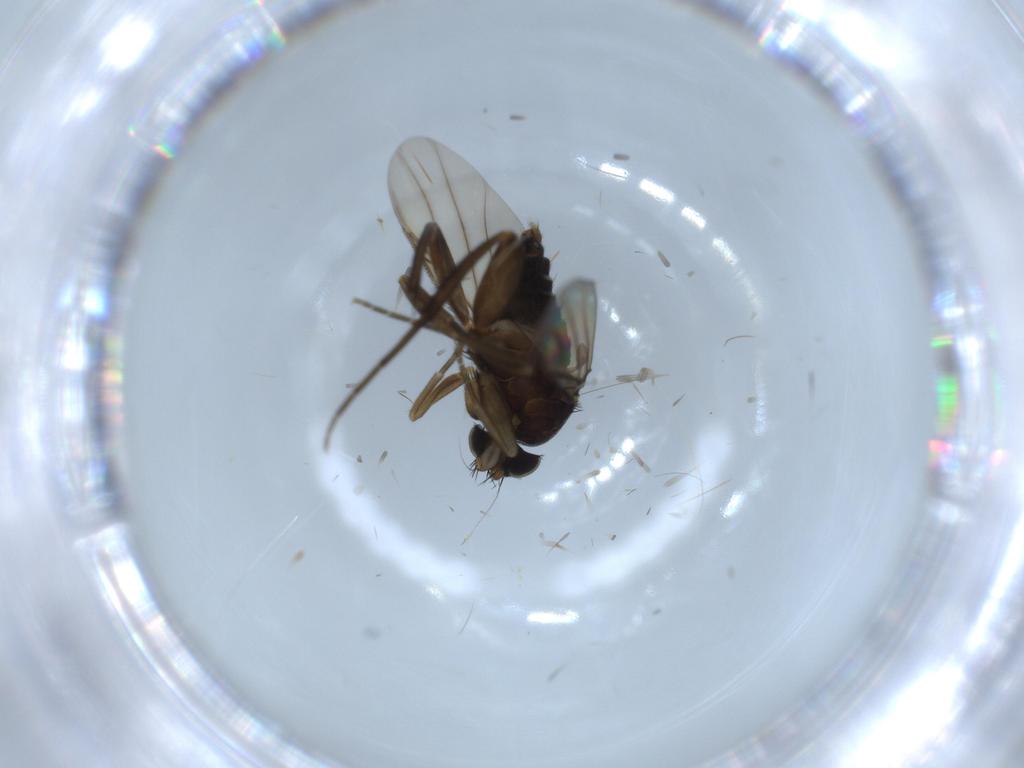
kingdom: Animalia
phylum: Arthropoda
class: Insecta
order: Diptera
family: Phoridae
